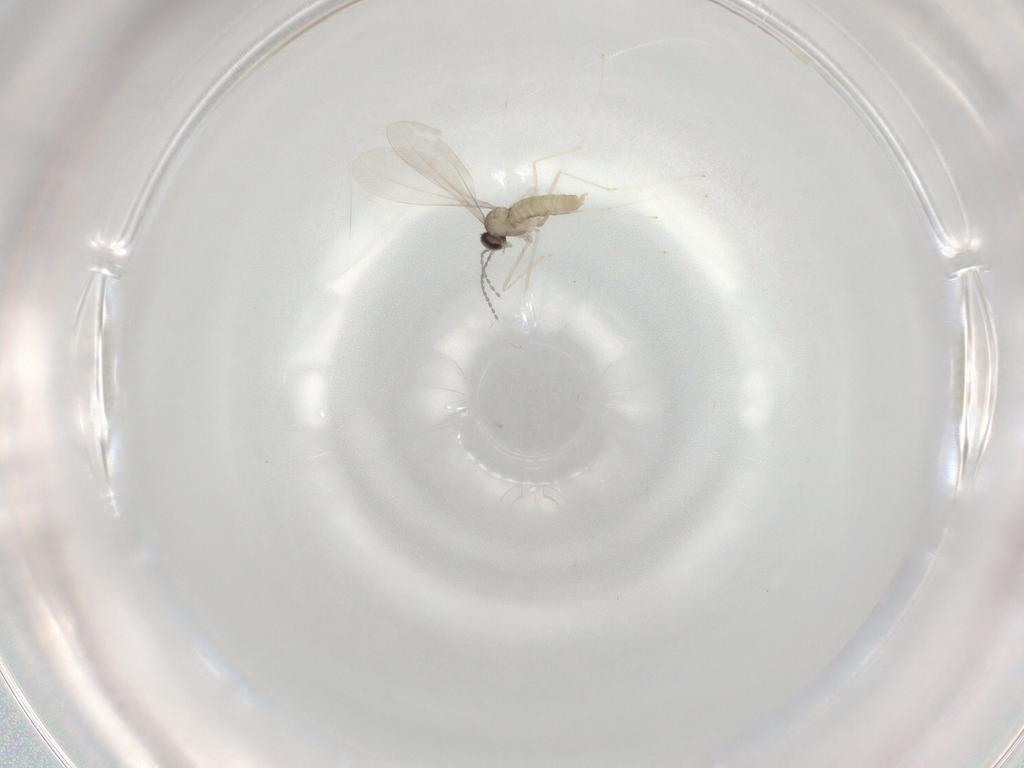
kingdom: Animalia
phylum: Arthropoda
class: Insecta
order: Diptera
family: Cecidomyiidae
